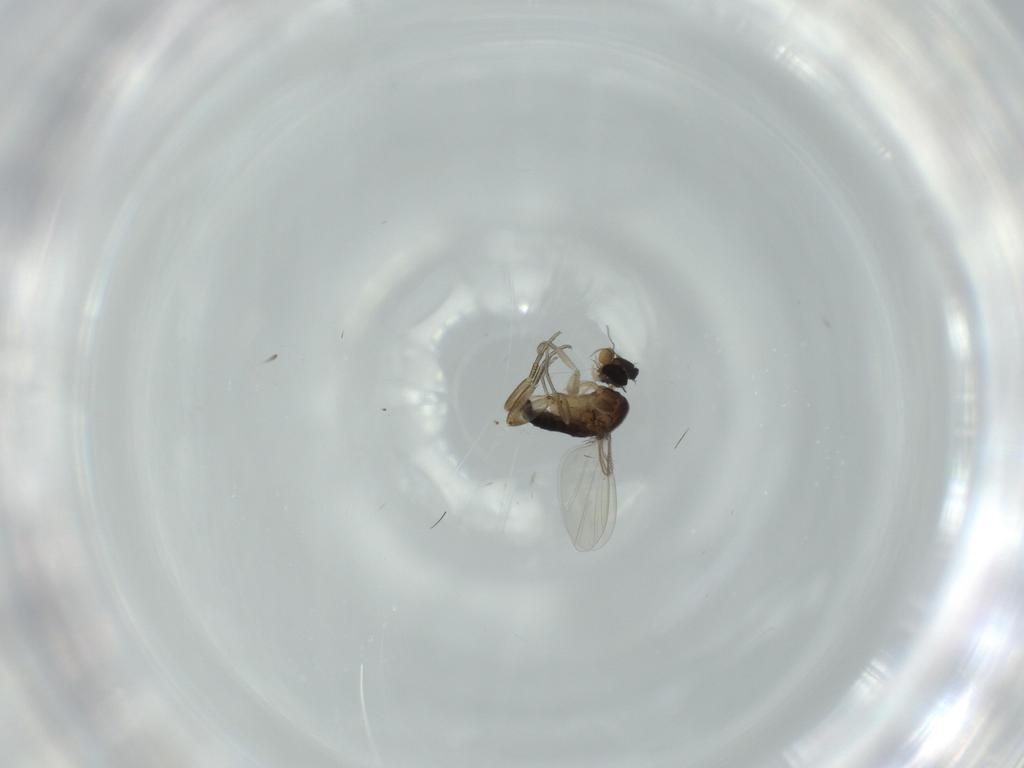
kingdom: Animalia
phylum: Arthropoda
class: Insecta
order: Diptera
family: Phoridae
